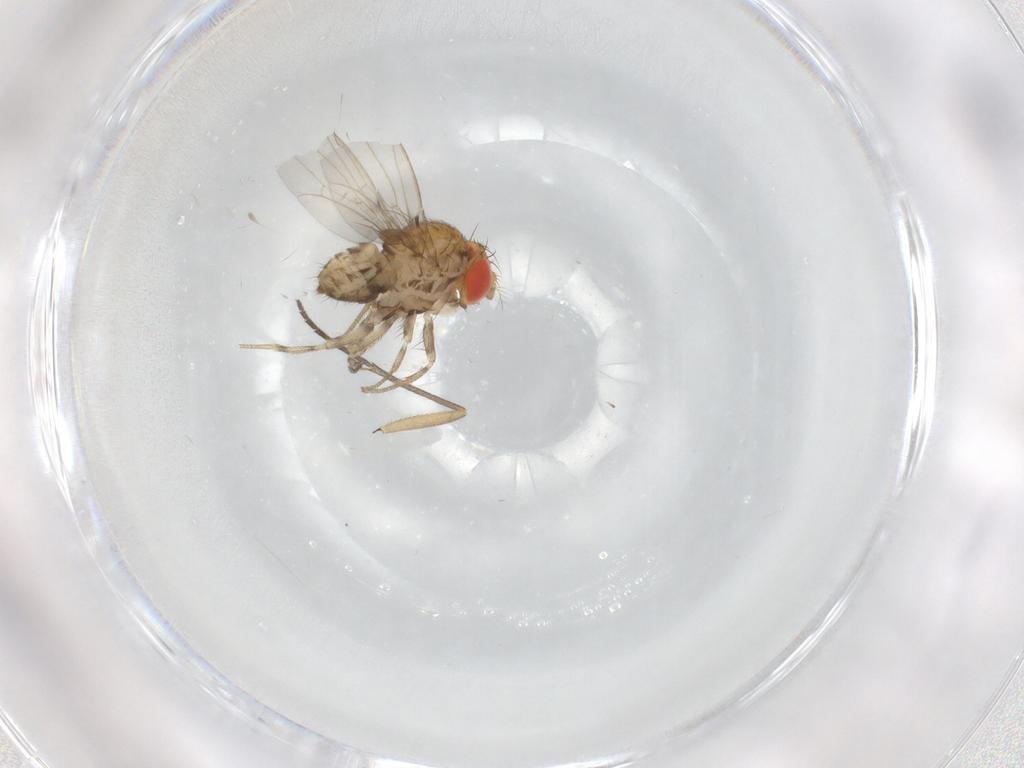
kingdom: Animalia
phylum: Arthropoda
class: Insecta
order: Diptera
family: Drosophilidae
